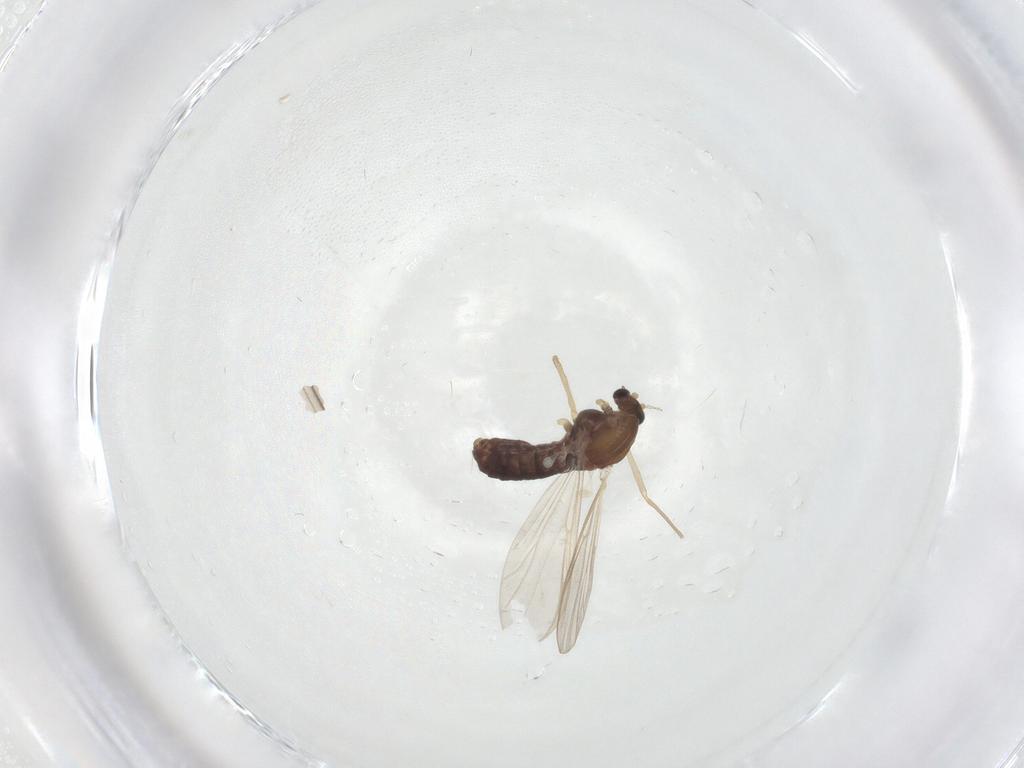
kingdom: Animalia
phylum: Arthropoda
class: Insecta
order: Diptera
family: Chironomidae
